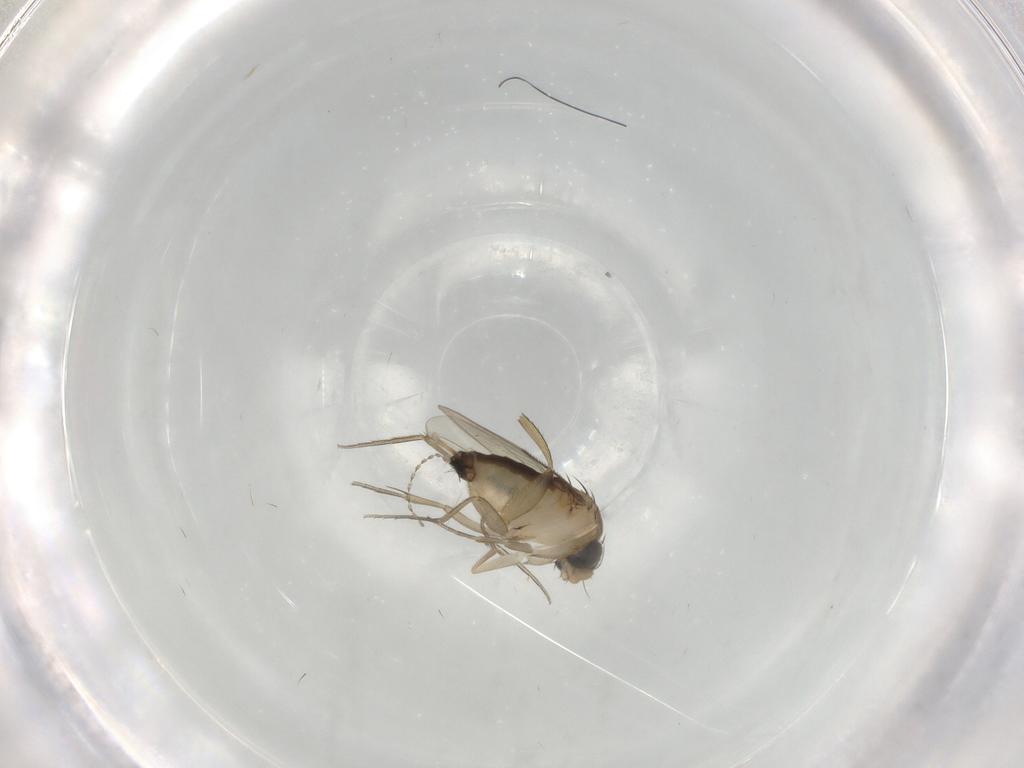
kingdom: Animalia
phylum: Arthropoda
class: Insecta
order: Diptera
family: Phoridae
